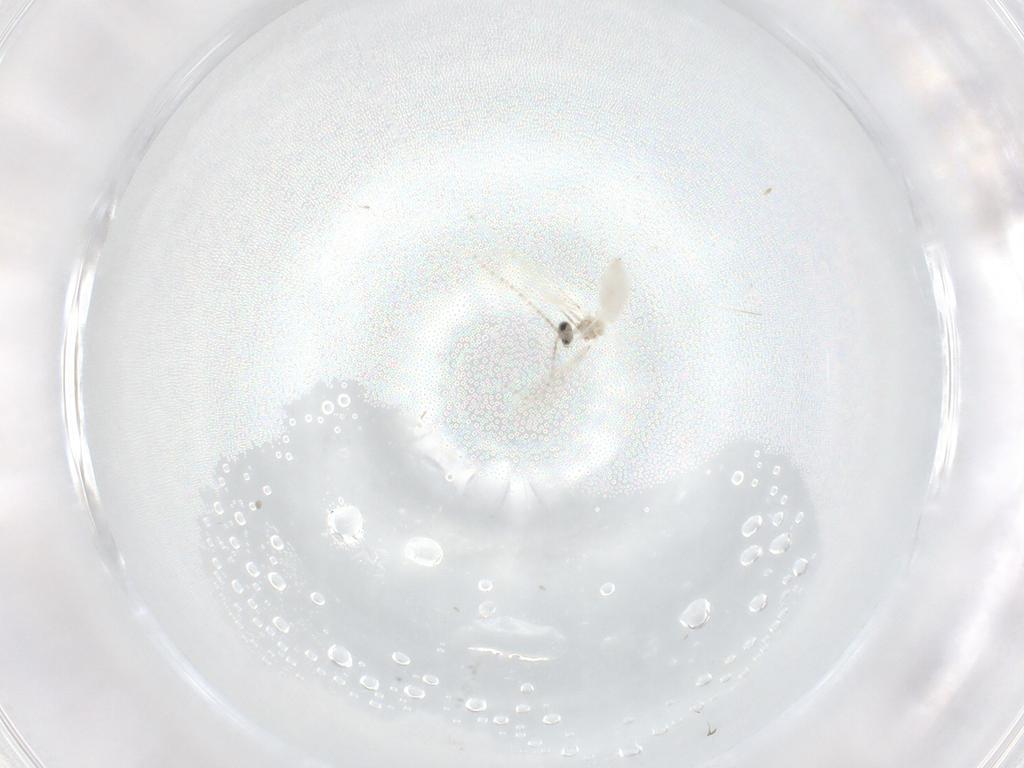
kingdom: Animalia
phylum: Arthropoda
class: Insecta
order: Diptera
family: Cecidomyiidae
